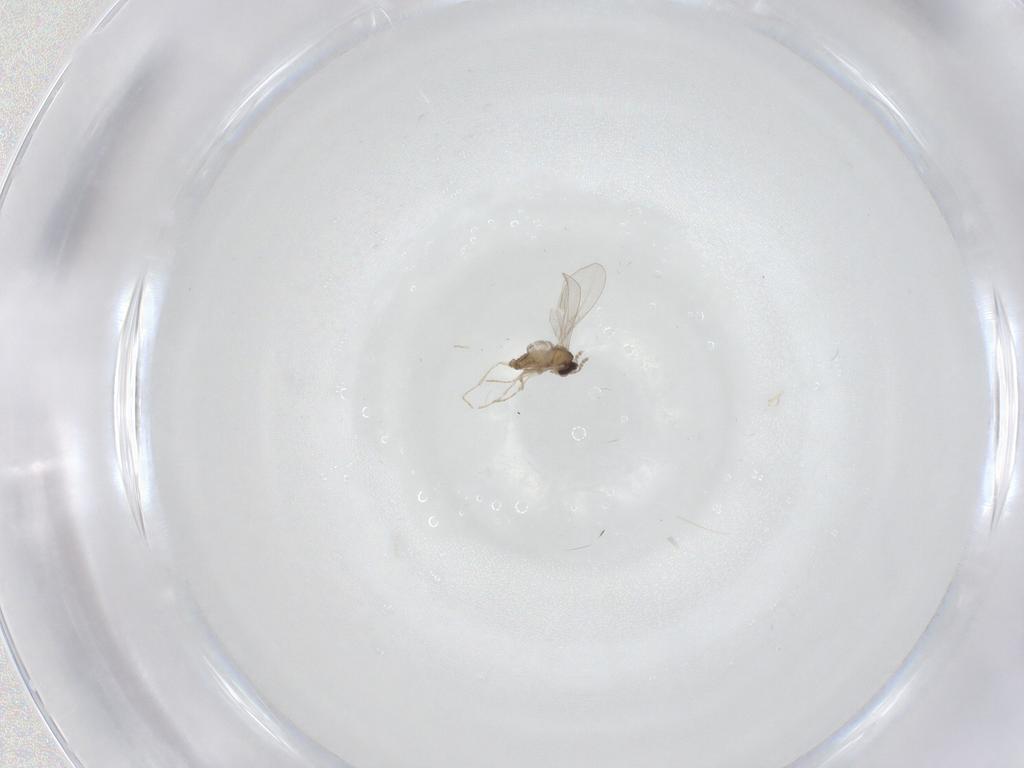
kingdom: Animalia
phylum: Arthropoda
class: Insecta
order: Diptera
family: Cecidomyiidae
